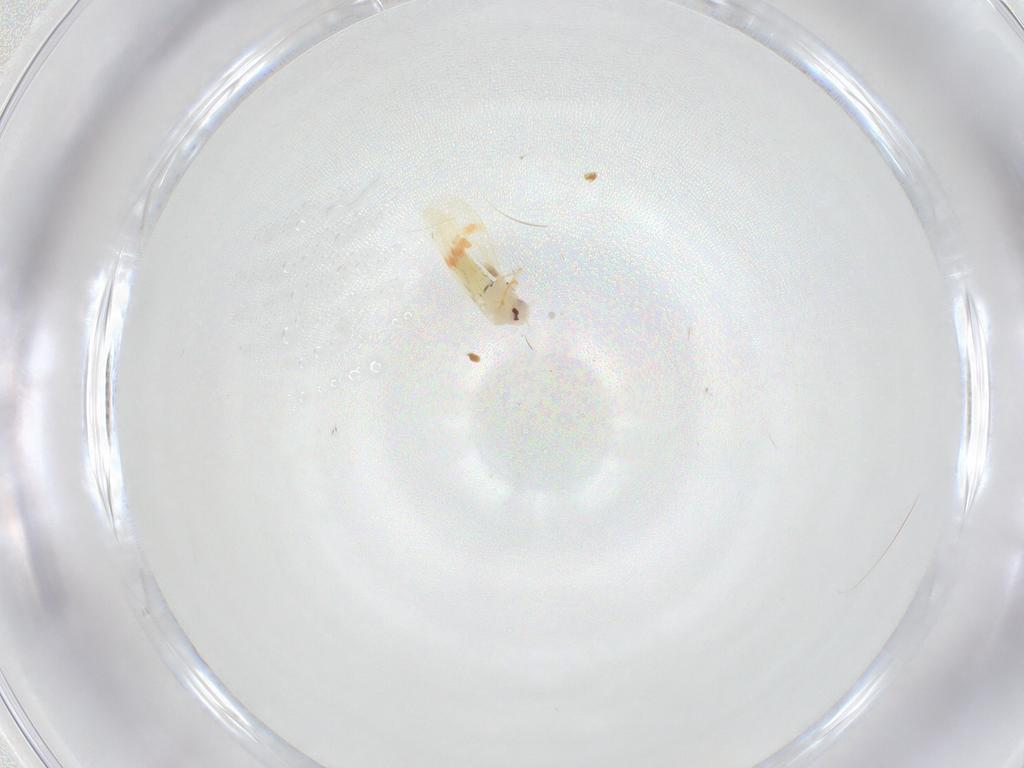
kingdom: Animalia
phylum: Arthropoda
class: Insecta
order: Hemiptera
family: Aleyrodidae
